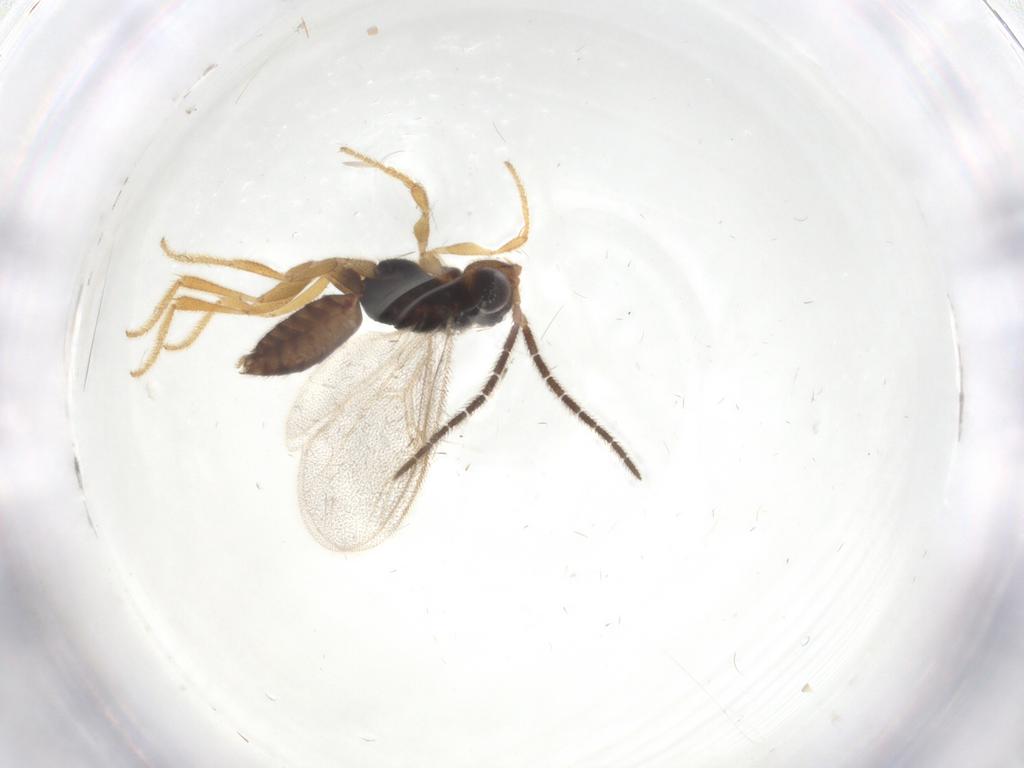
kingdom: Animalia
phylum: Arthropoda
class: Insecta
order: Hymenoptera
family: Dryinidae
